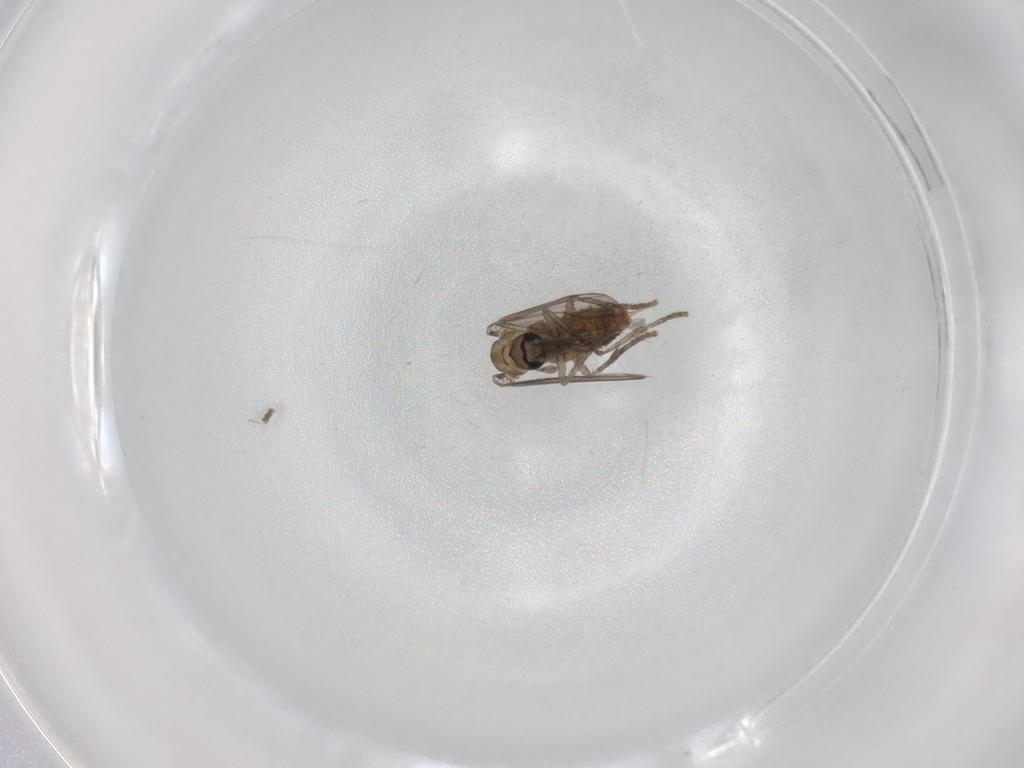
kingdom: Animalia
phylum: Arthropoda
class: Insecta
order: Diptera
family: Psychodidae
